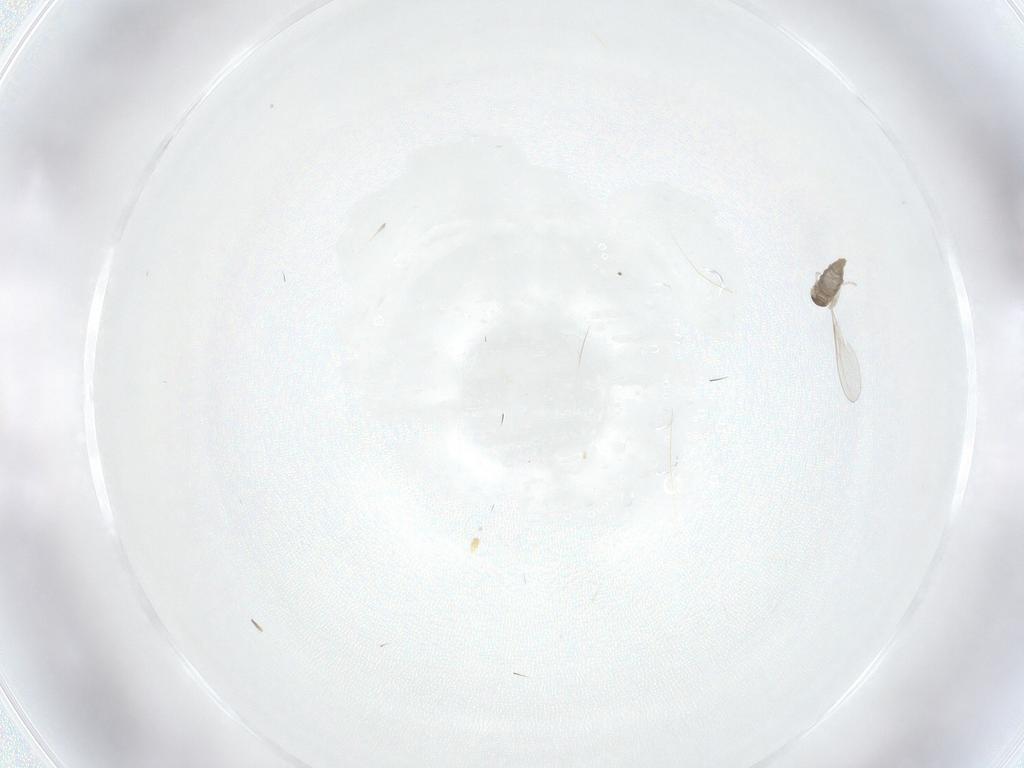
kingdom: Animalia
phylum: Arthropoda
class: Insecta
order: Diptera
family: Cecidomyiidae
